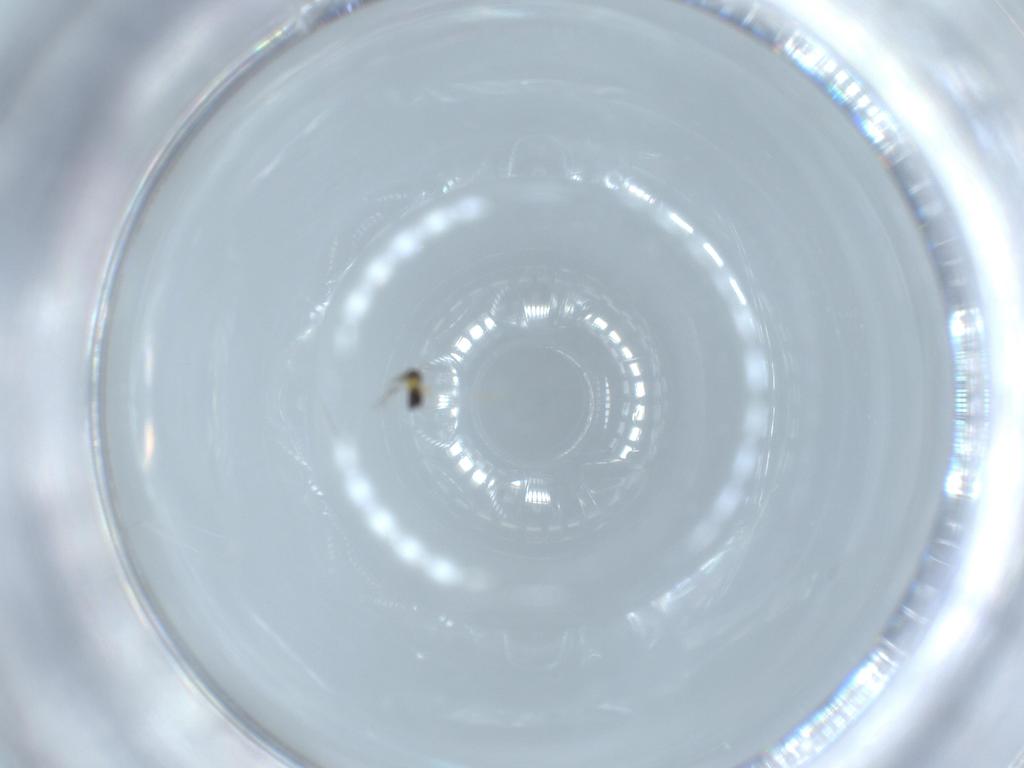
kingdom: Animalia
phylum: Arthropoda
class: Insecta
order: Hymenoptera
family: Signiphoridae
